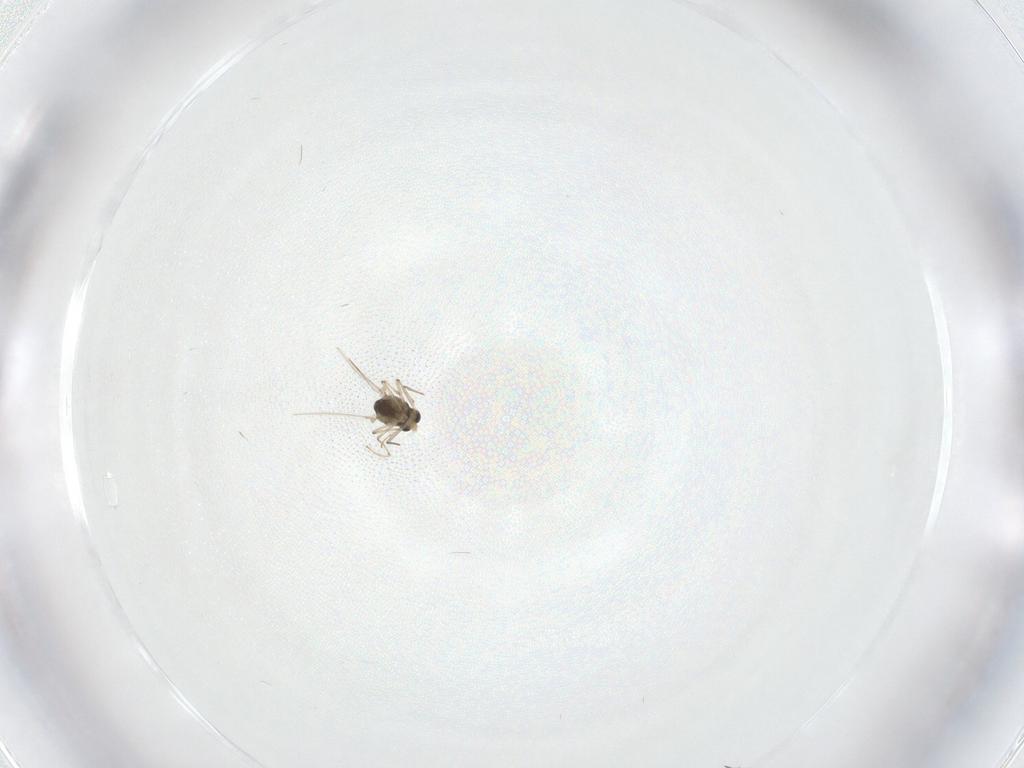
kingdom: Animalia
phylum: Arthropoda
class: Insecta
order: Diptera
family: Chironomidae
